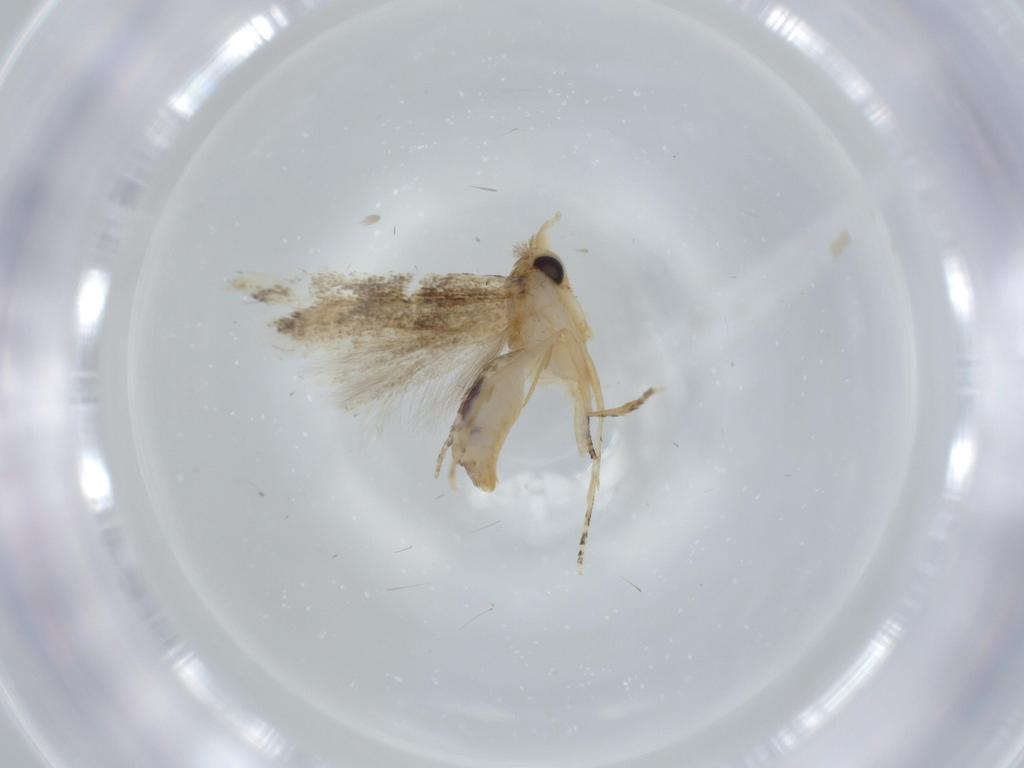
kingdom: Animalia
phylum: Arthropoda
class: Insecta
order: Lepidoptera
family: Bucculatricidae
